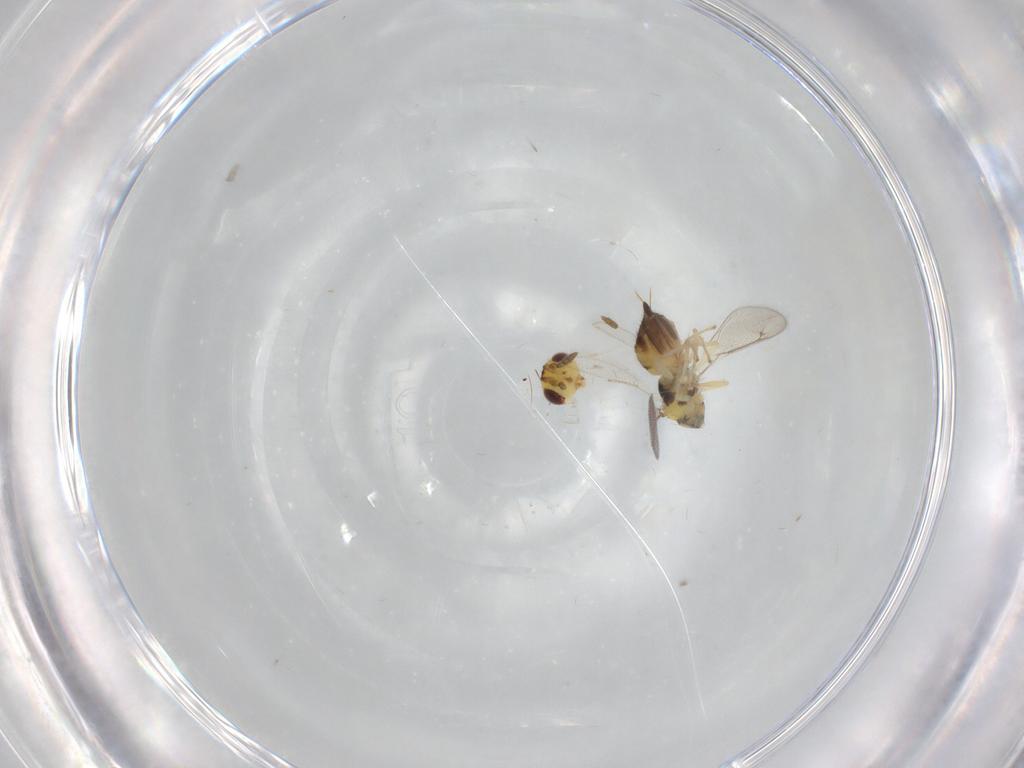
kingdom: Animalia
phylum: Arthropoda
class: Insecta
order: Hymenoptera
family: Eulophidae
